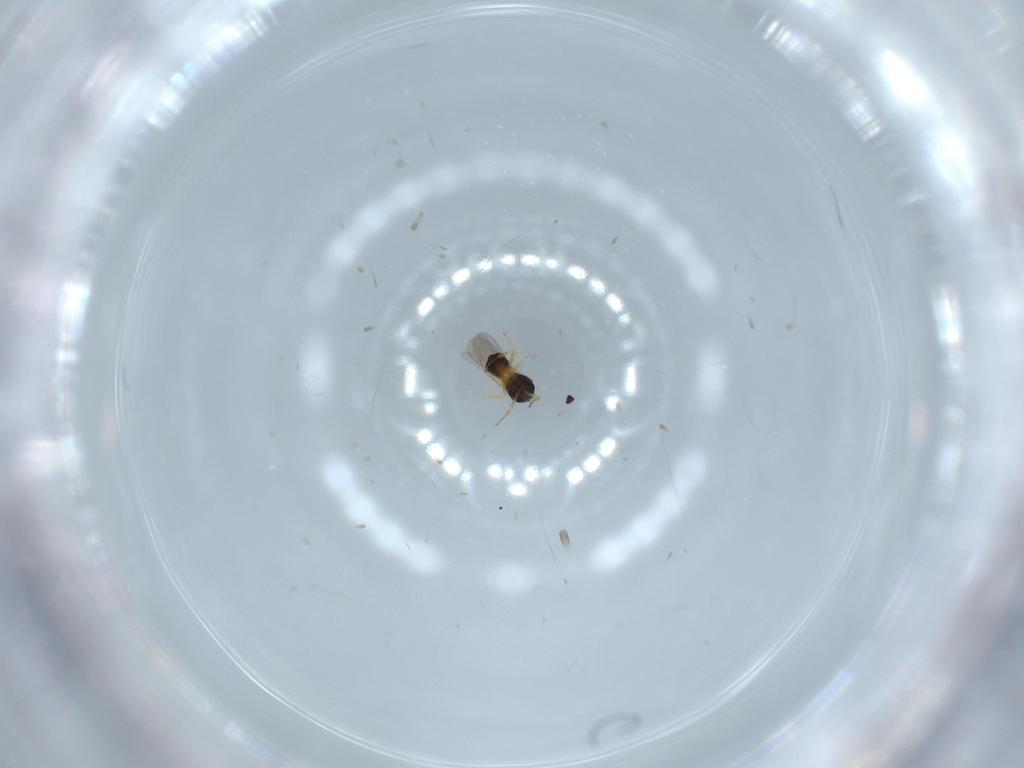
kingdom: Animalia
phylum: Arthropoda
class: Insecta
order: Hymenoptera
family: Scelionidae
